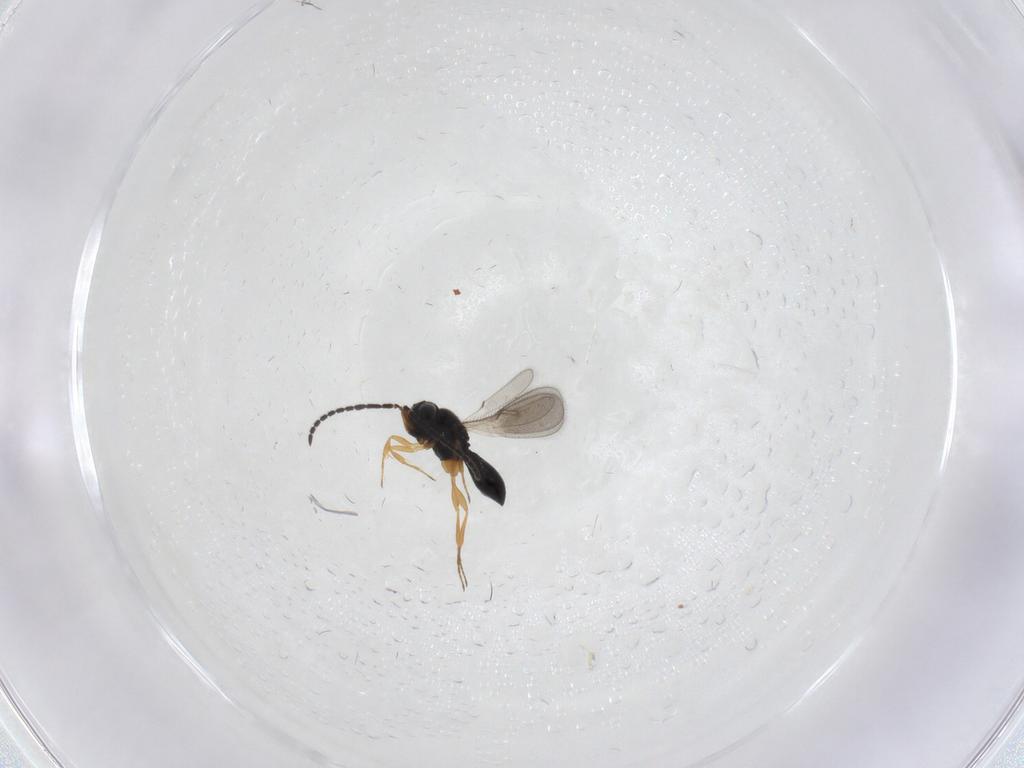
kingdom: Animalia
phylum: Arthropoda
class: Insecta
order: Hymenoptera
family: Scelionidae
